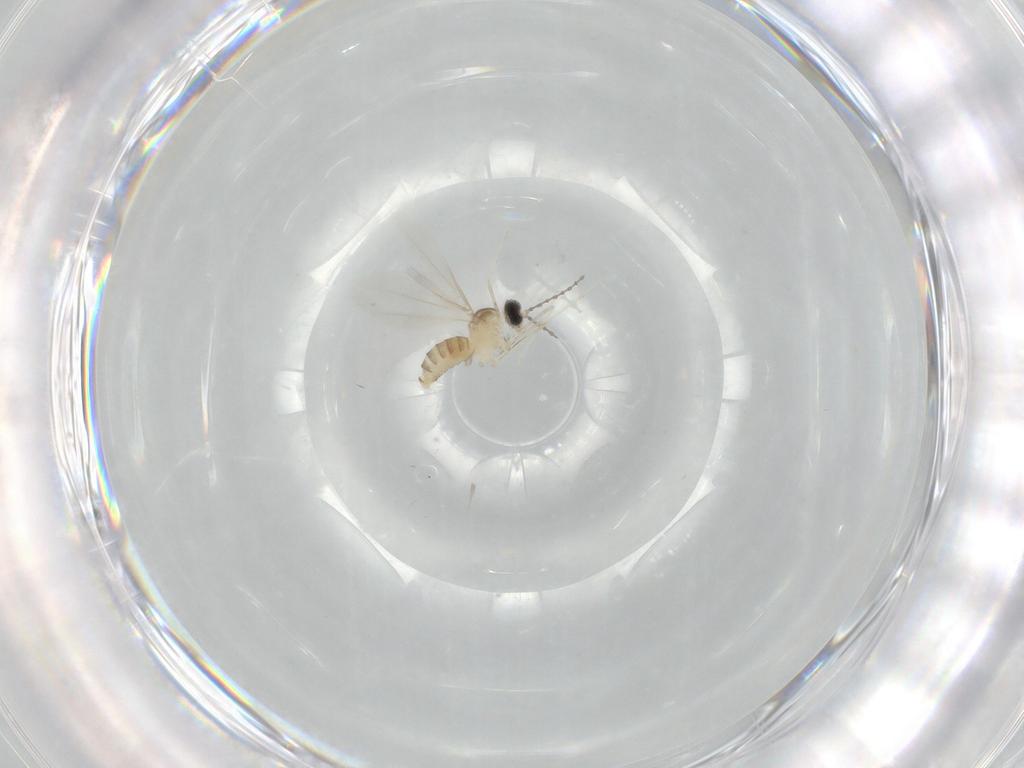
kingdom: Animalia
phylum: Arthropoda
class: Insecta
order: Diptera
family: Cecidomyiidae
